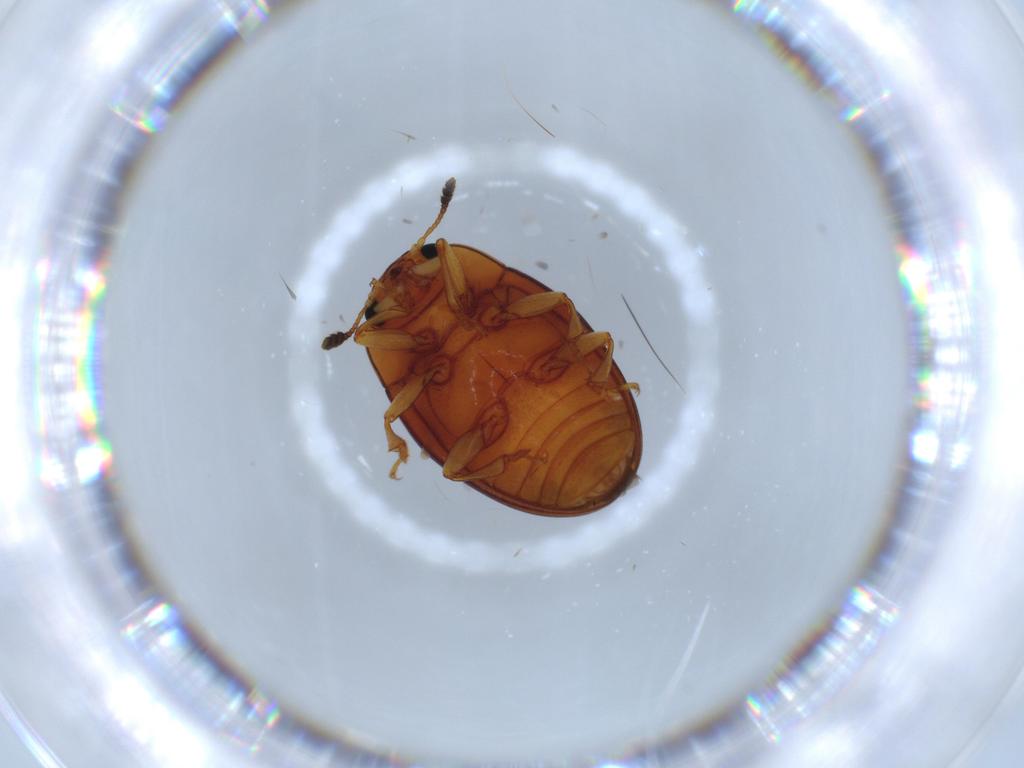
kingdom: Animalia
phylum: Arthropoda
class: Insecta
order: Coleoptera
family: Erotylidae
